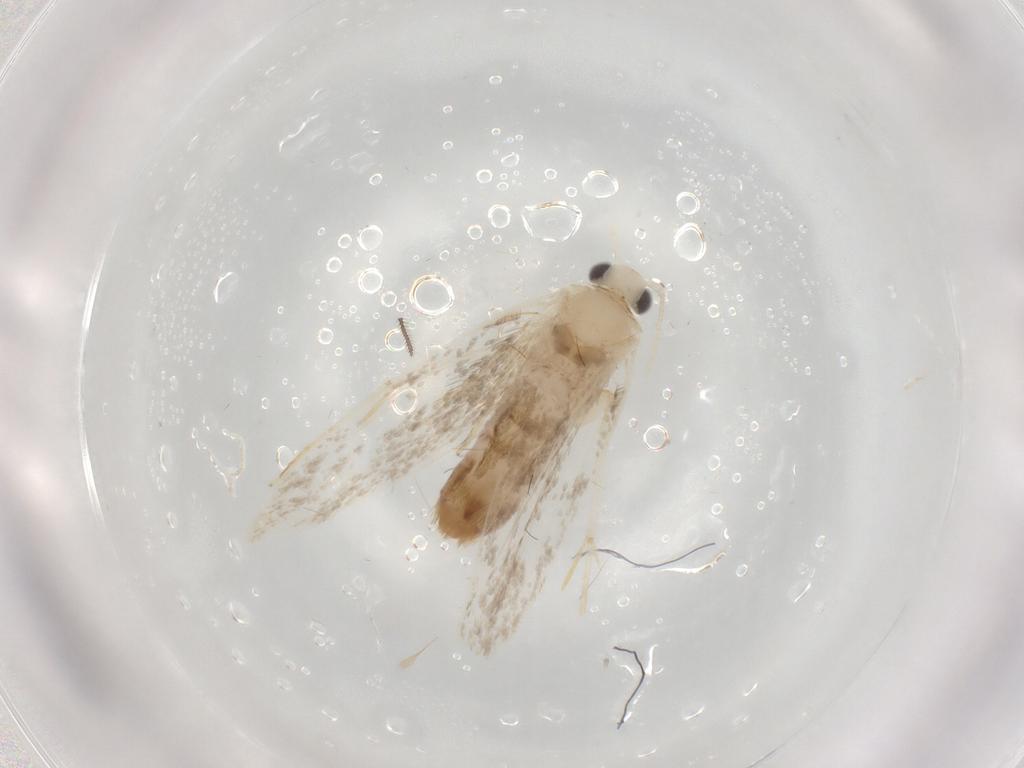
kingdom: Animalia
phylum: Arthropoda
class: Insecta
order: Lepidoptera
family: Dryadaulidae
